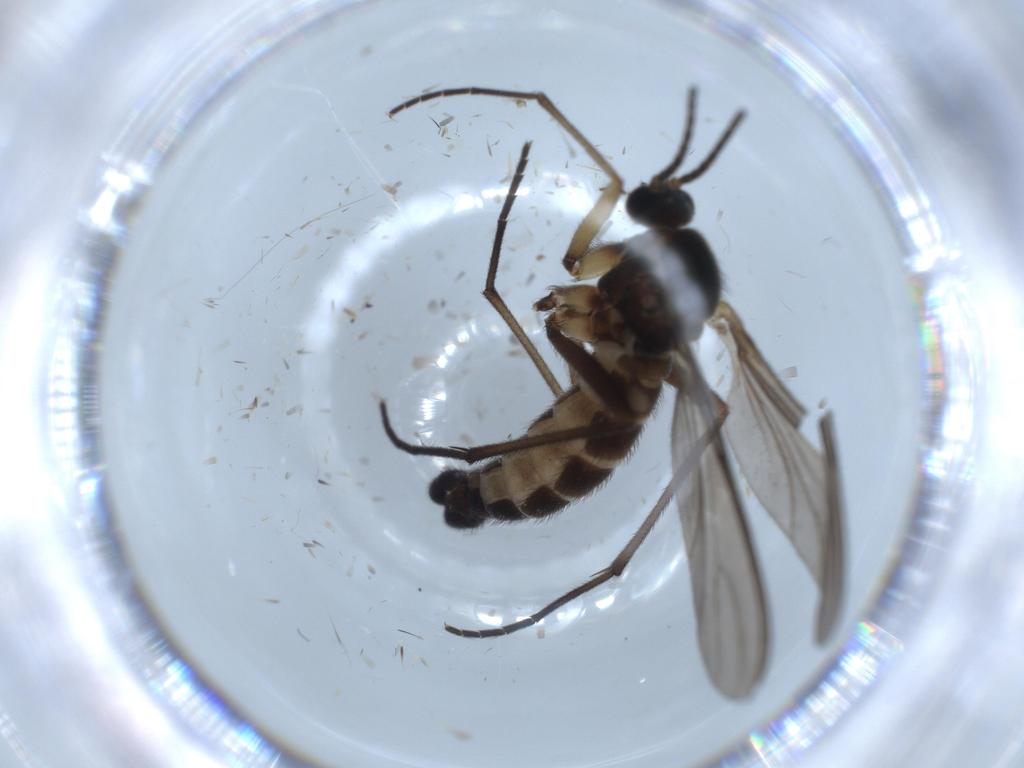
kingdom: Animalia
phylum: Arthropoda
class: Insecta
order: Diptera
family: Sciaridae
